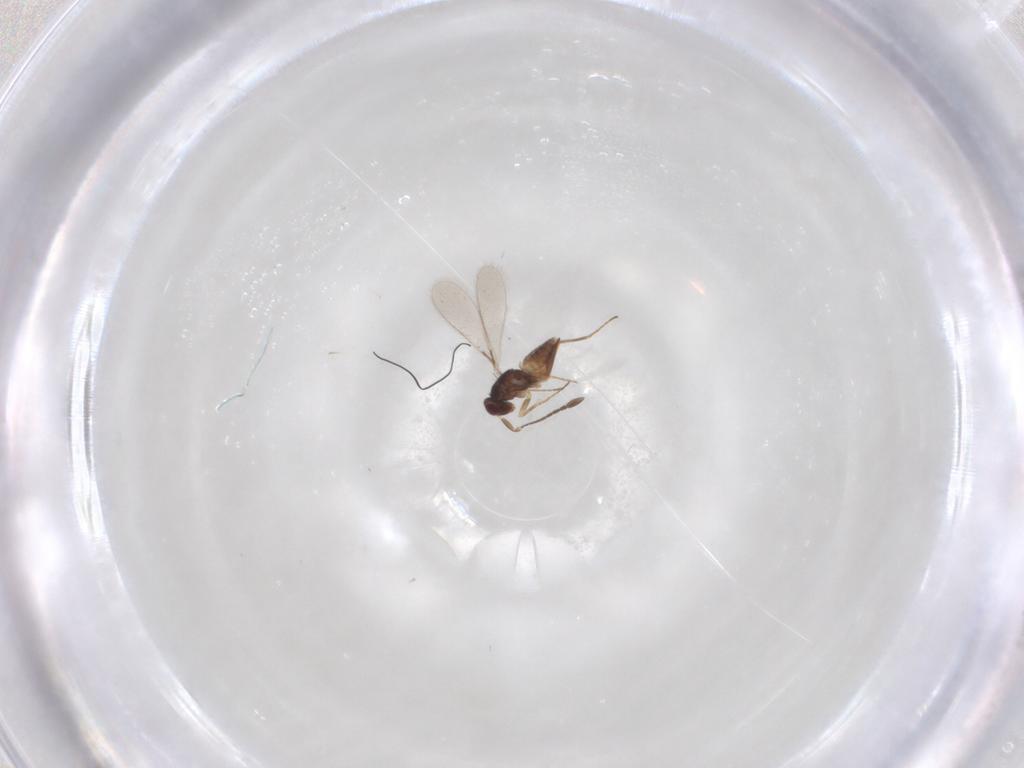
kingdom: Animalia
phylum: Arthropoda
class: Insecta
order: Hymenoptera
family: Mymaridae
